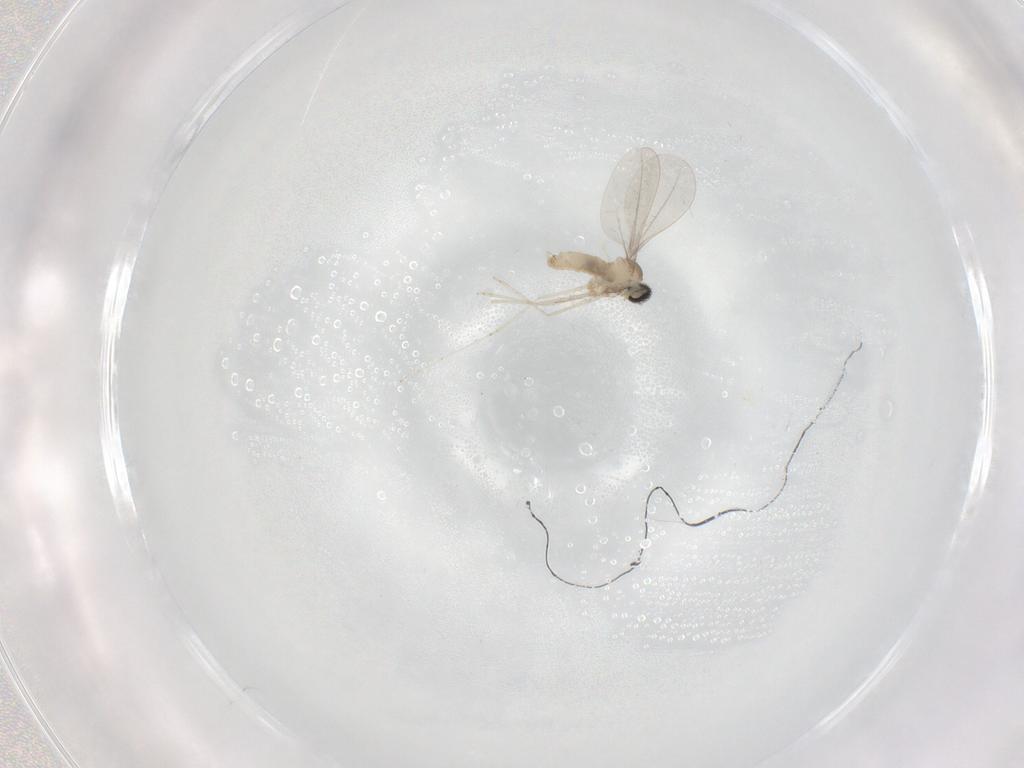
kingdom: Animalia
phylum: Arthropoda
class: Insecta
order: Diptera
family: Cecidomyiidae
